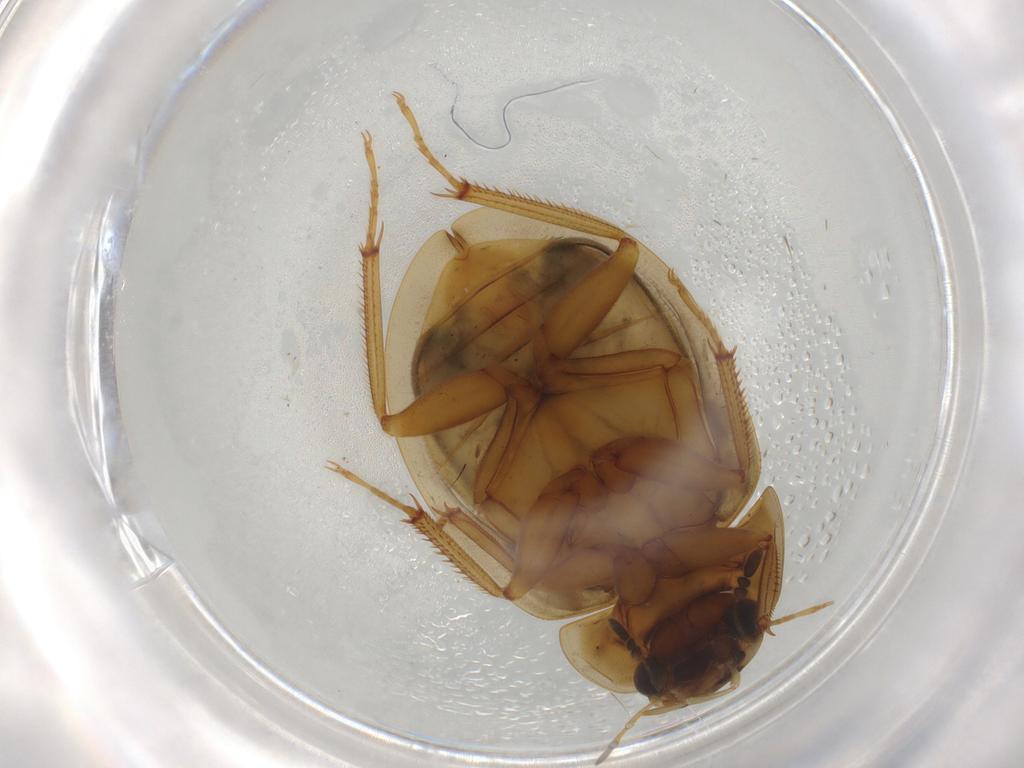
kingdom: Animalia
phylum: Arthropoda
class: Insecta
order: Coleoptera
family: Hydrophilidae
